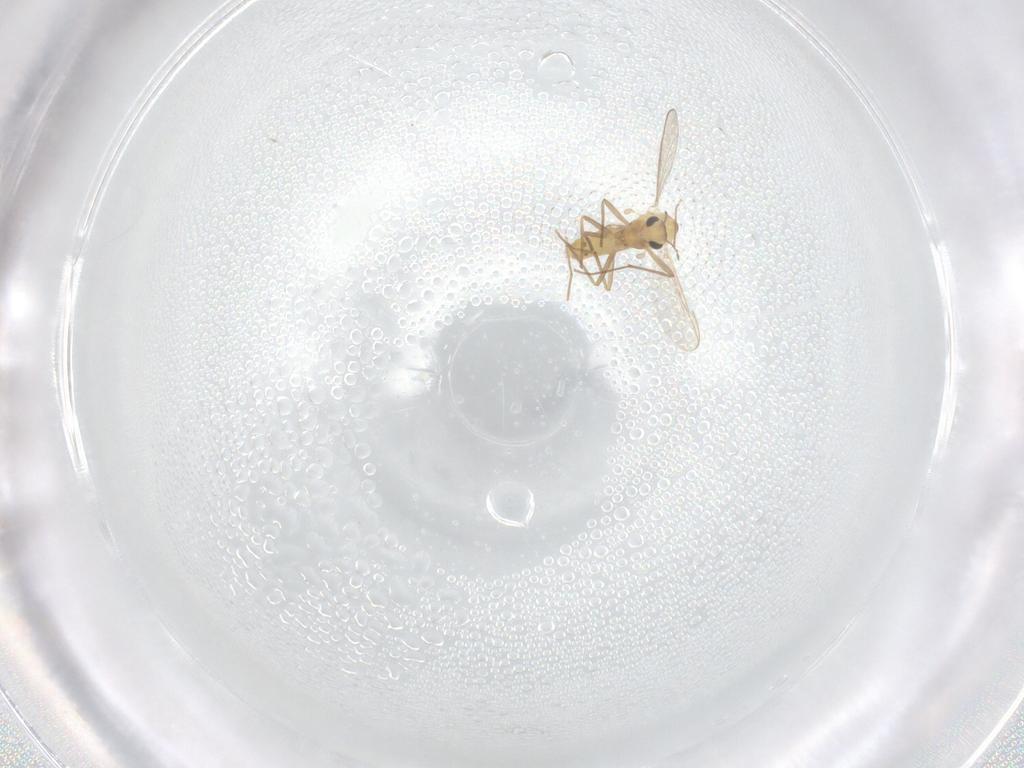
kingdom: Animalia
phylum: Arthropoda
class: Insecta
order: Diptera
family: Chironomidae
